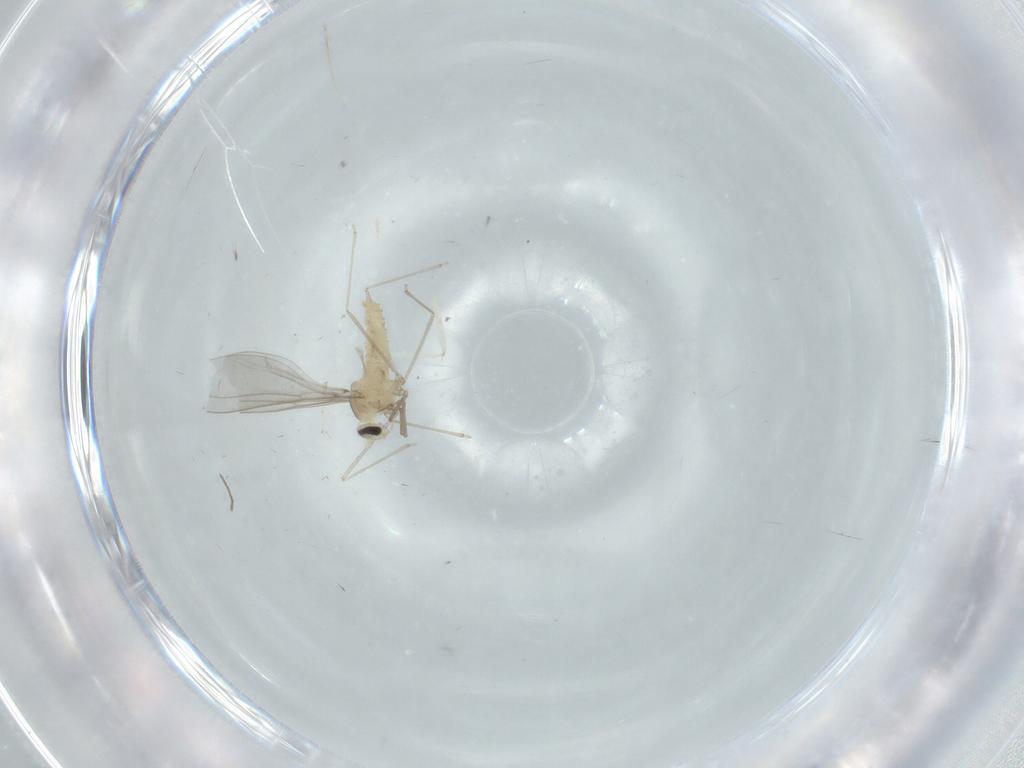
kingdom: Animalia
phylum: Arthropoda
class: Insecta
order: Diptera
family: Cecidomyiidae
